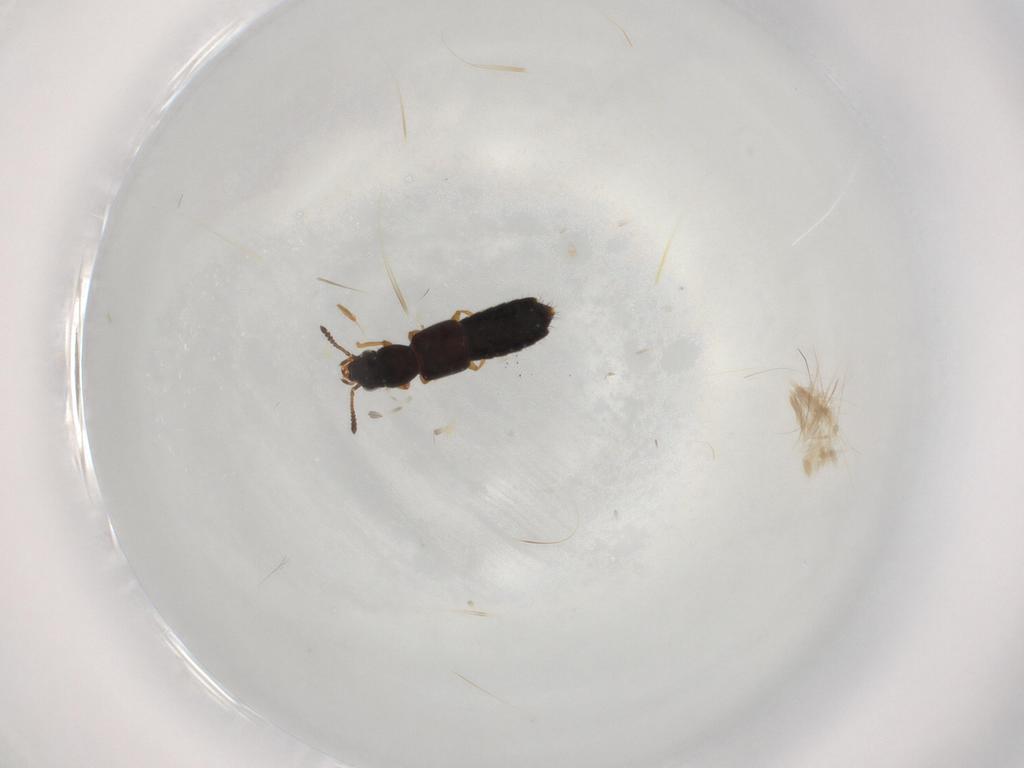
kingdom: Animalia
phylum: Arthropoda
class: Insecta
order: Coleoptera
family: Staphylinidae
